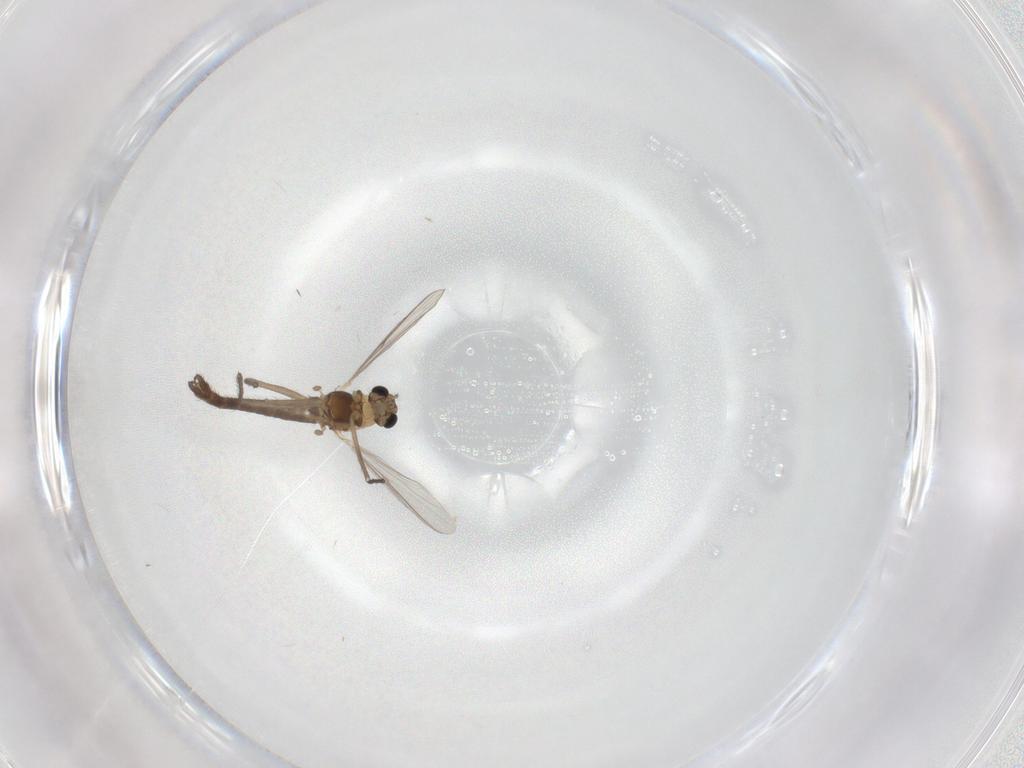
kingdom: Animalia
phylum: Arthropoda
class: Insecta
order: Diptera
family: Chironomidae
